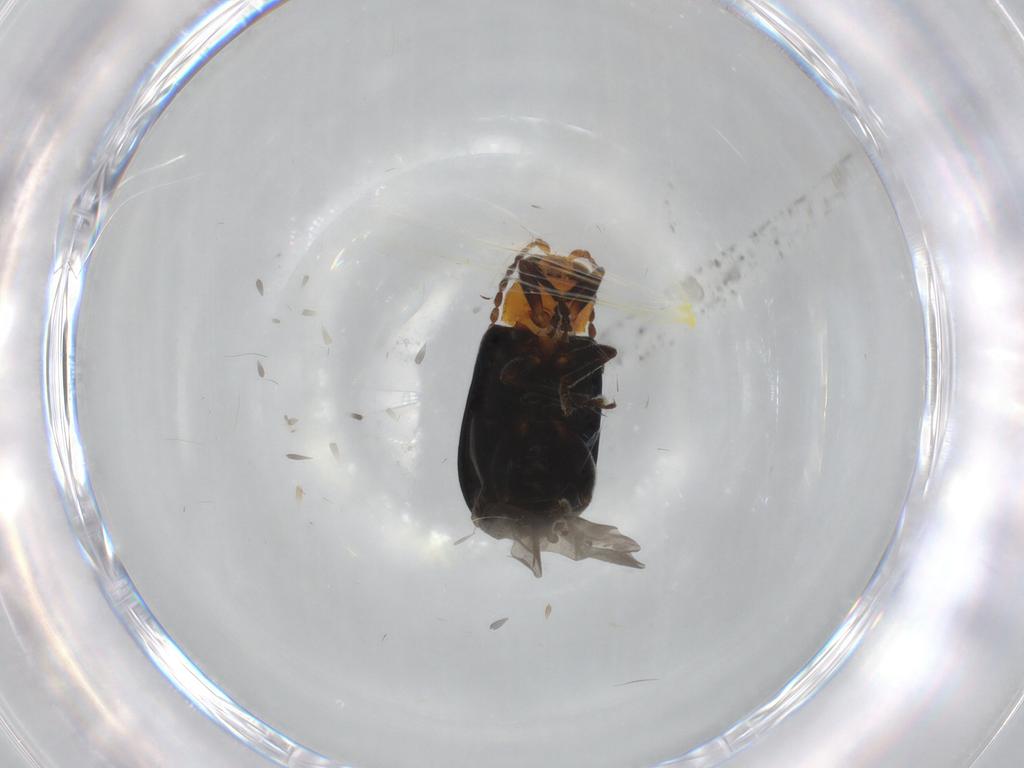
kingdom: Animalia
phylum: Arthropoda
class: Insecta
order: Coleoptera
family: Chrysomelidae
